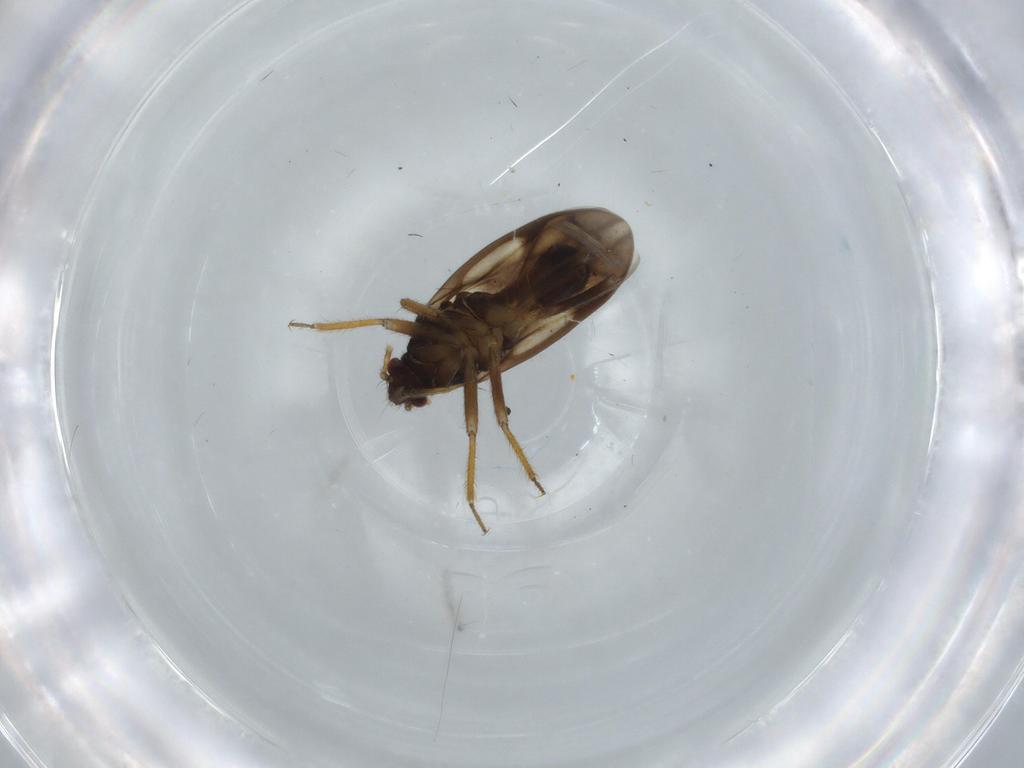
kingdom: Animalia
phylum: Arthropoda
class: Insecta
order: Hemiptera
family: Ceratocombidae
